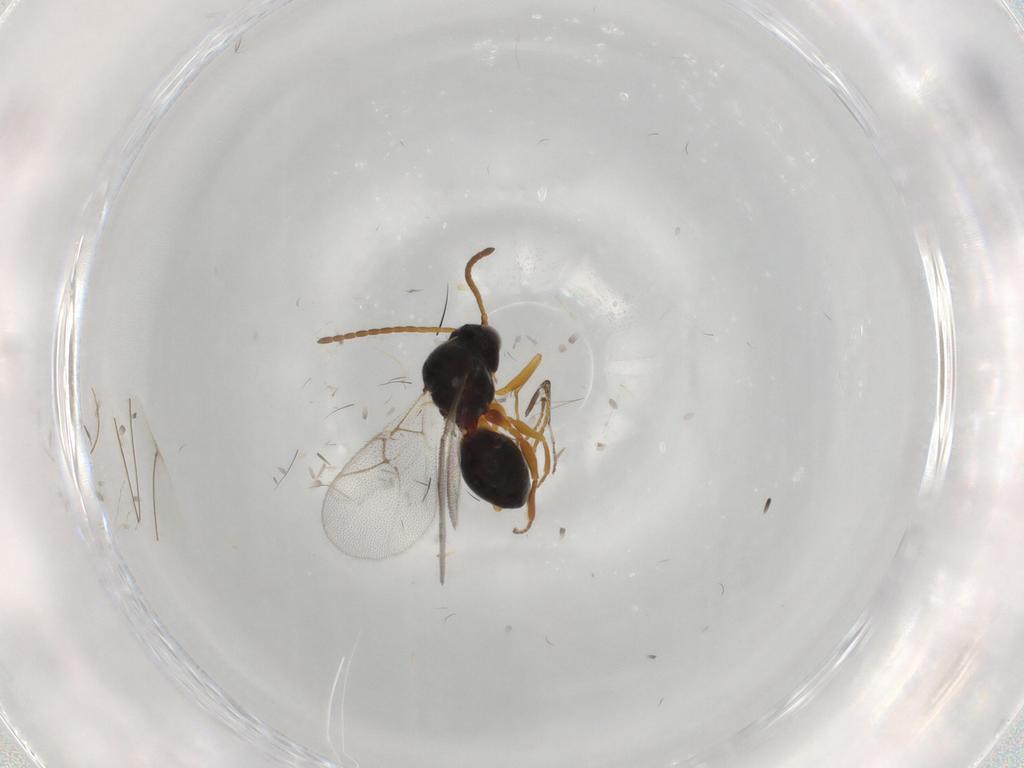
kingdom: Animalia
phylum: Arthropoda
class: Insecta
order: Hymenoptera
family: Figitidae
